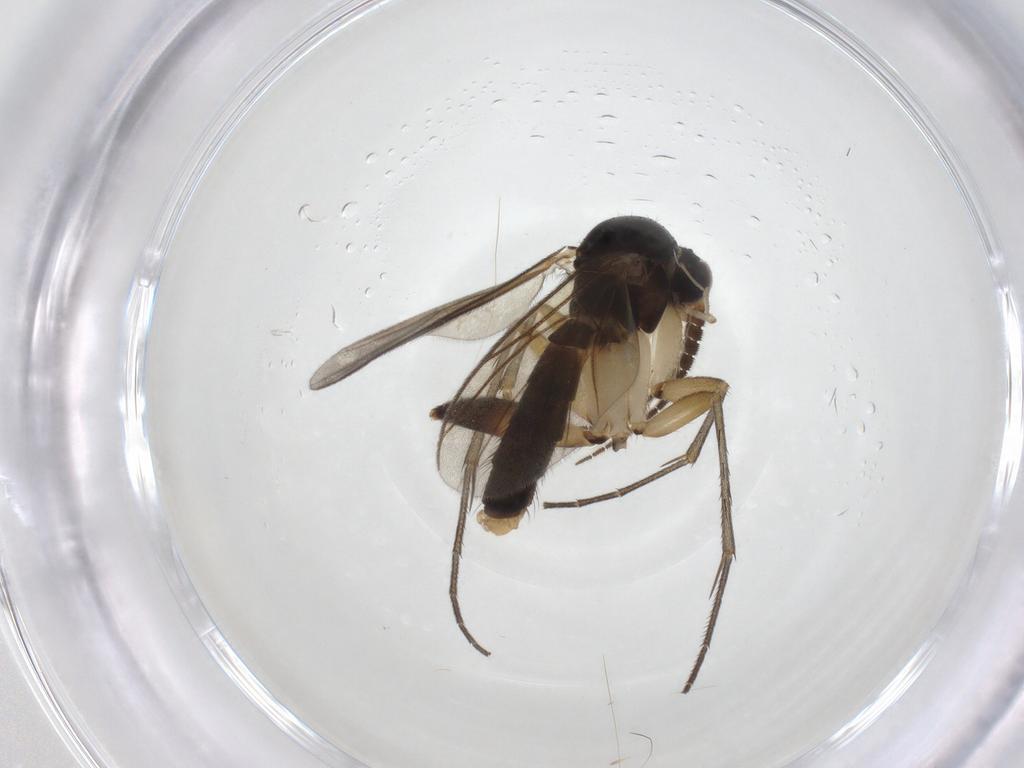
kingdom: Animalia
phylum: Arthropoda
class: Insecta
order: Diptera
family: Mycetophilidae
